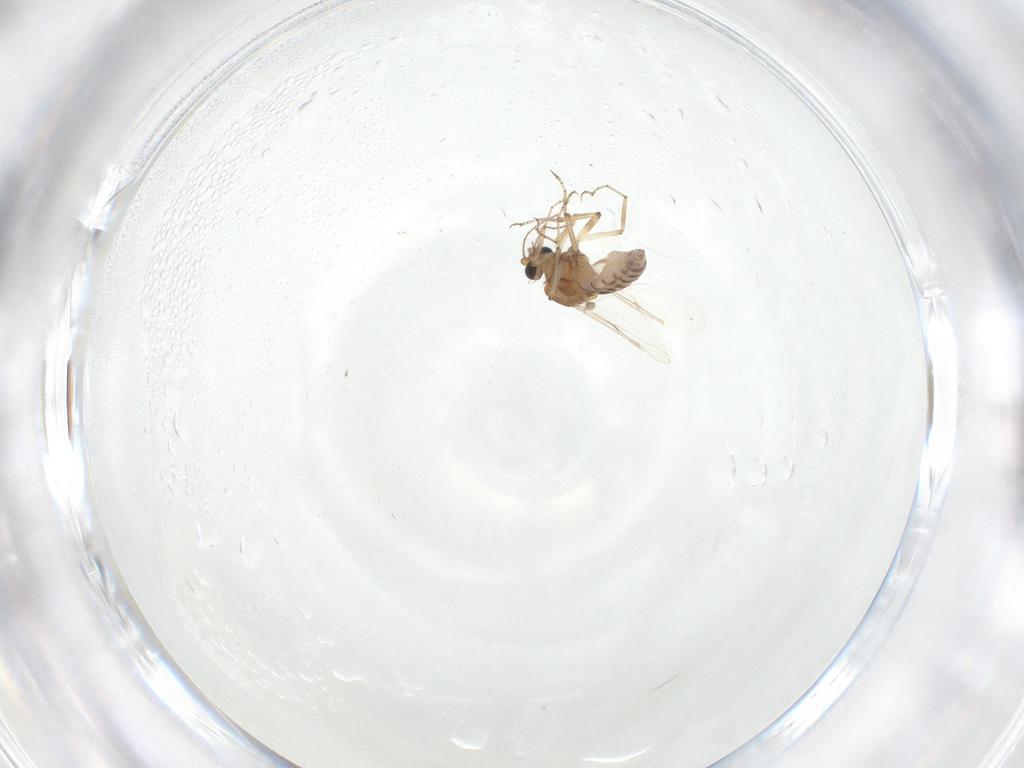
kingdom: Animalia
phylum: Arthropoda
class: Insecta
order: Diptera
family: Ceratopogonidae
